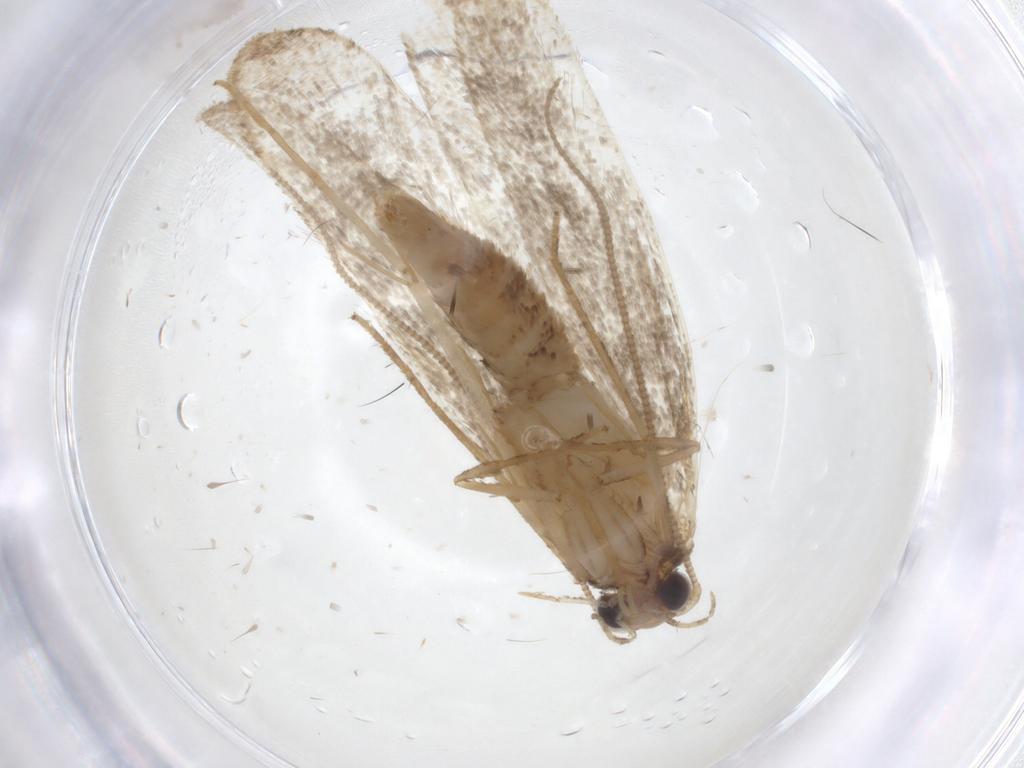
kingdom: Animalia
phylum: Arthropoda
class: Insecta
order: Lepidoptera
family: Tineidae
